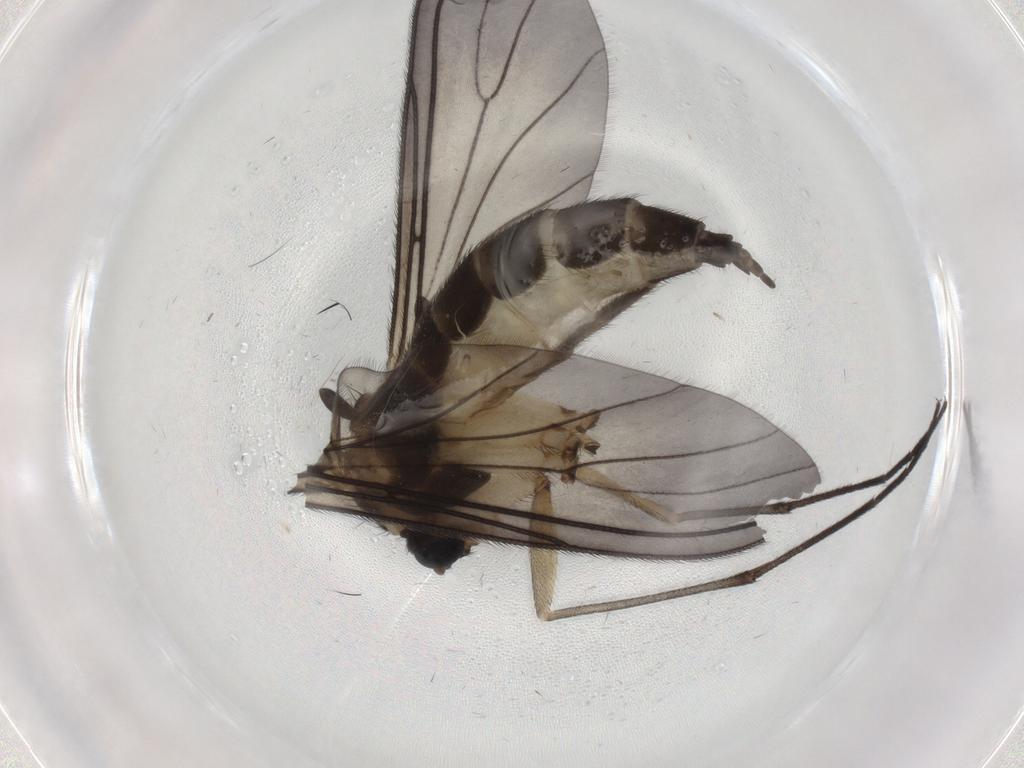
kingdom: Animalia
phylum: Arthropoda
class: Insecta
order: Diptera
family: Sciaridae
